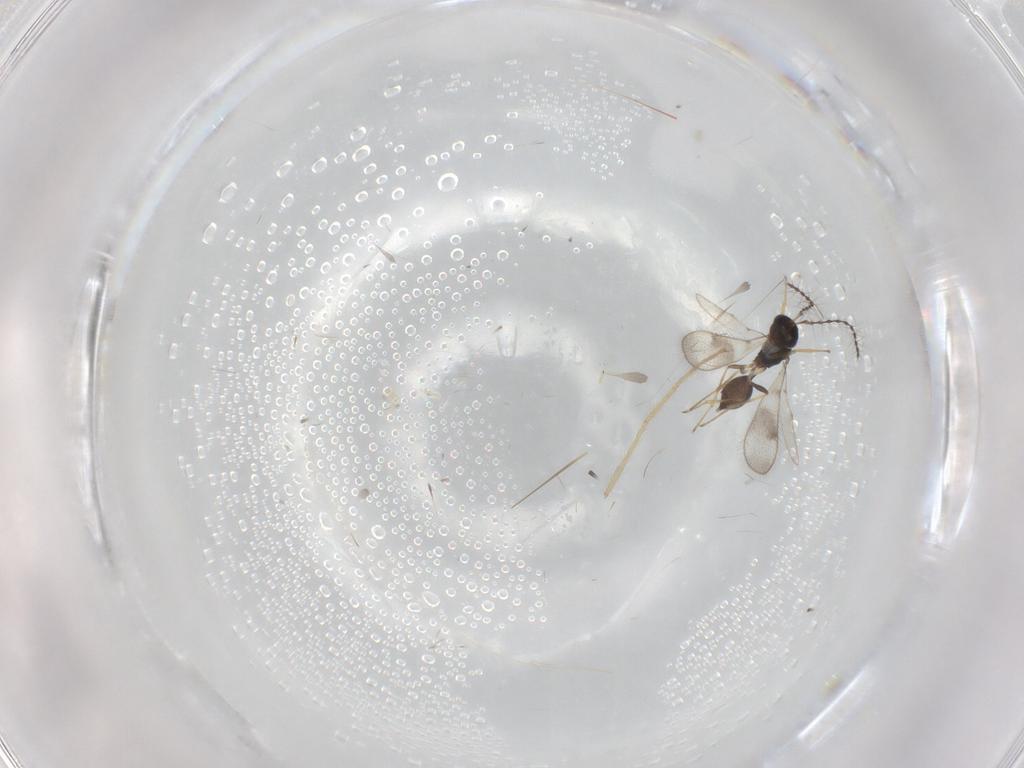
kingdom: Animalia
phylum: Arthropoda
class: Insecta
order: Hymenoptera
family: Diparidae
